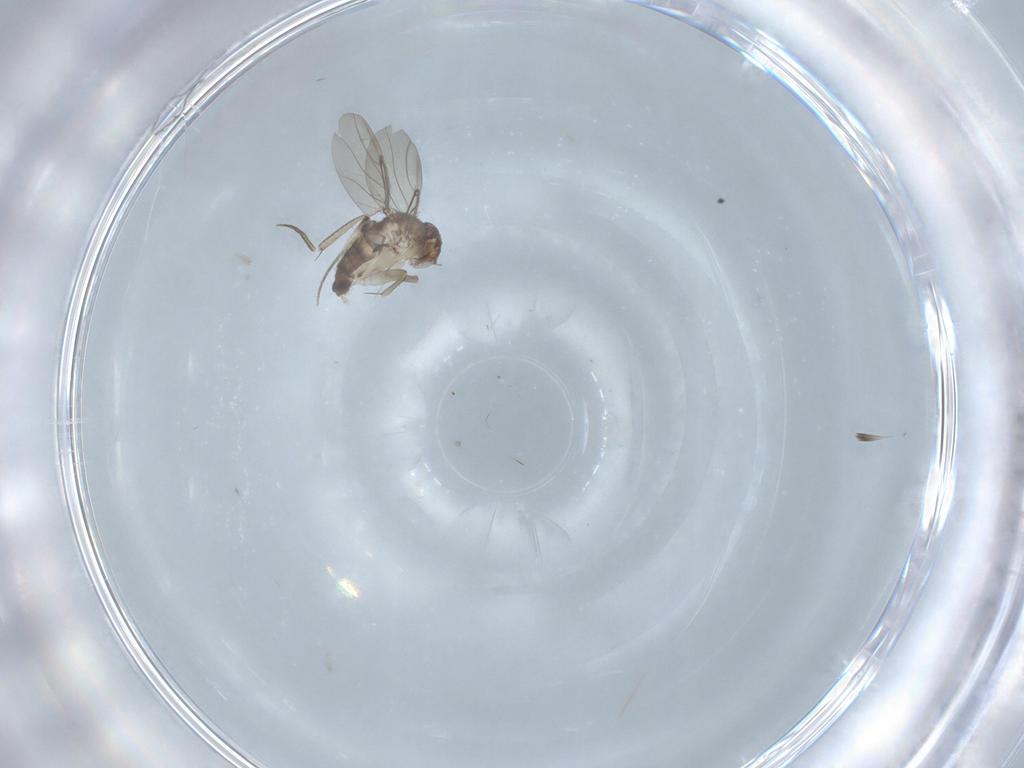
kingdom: Animalia
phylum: Arthropoda
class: Insecta
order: Diptera
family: Phoridae
